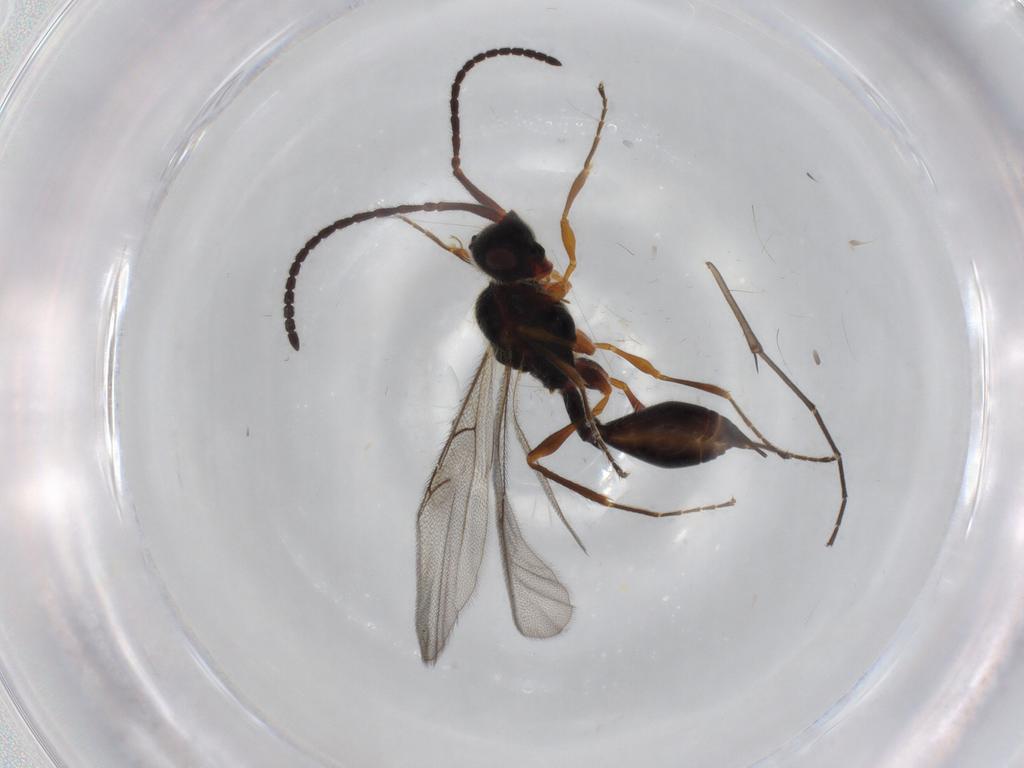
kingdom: Animalia
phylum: Arthropoda
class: Insecta
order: Hymenoptera
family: Diapriidae
